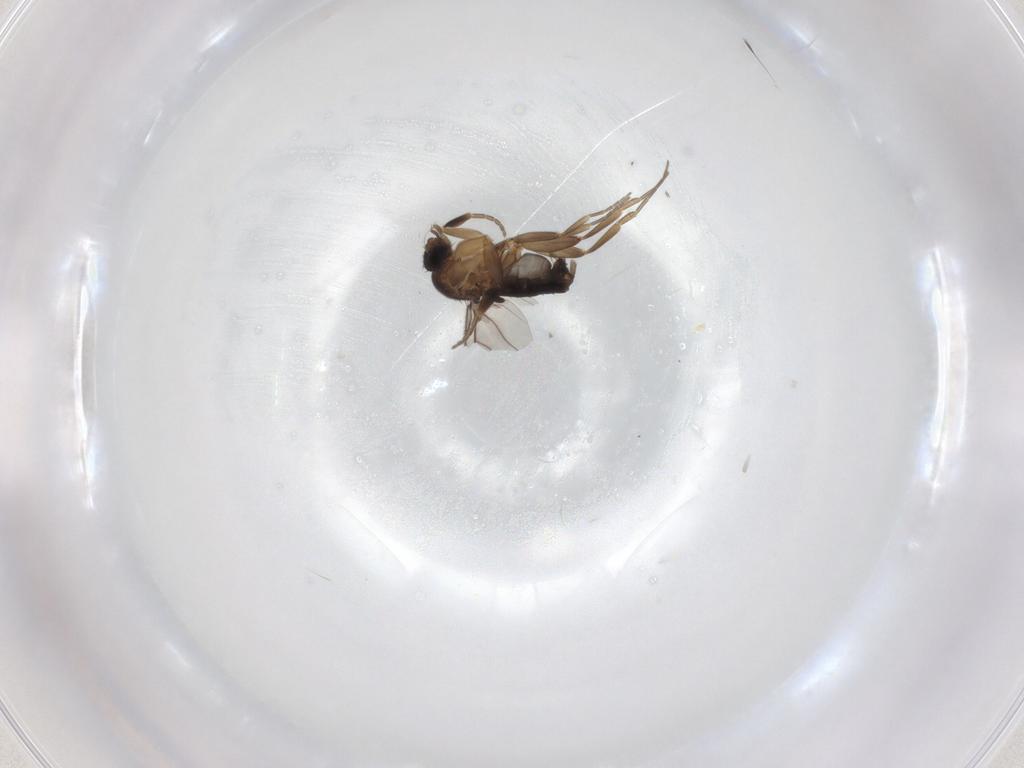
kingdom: Animalia
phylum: Arthropoda
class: Insecta
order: Diptera
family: Phoridae
